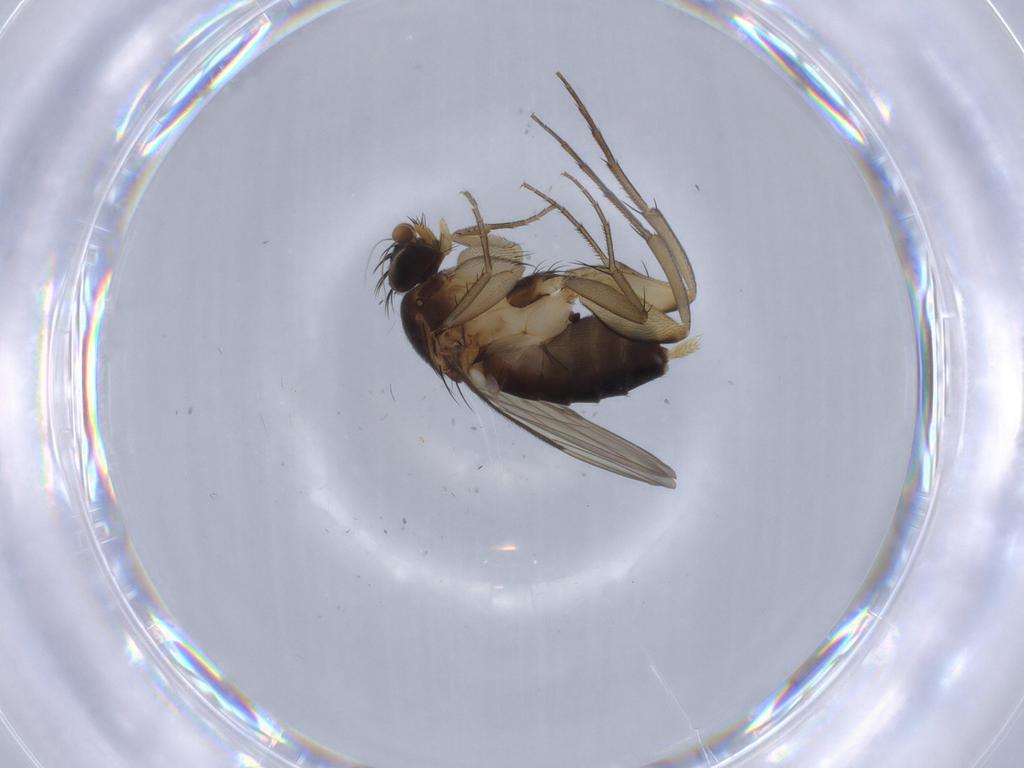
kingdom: Animalia
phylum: Arthropoda
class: Insecta
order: Diptera
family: Phoridae
